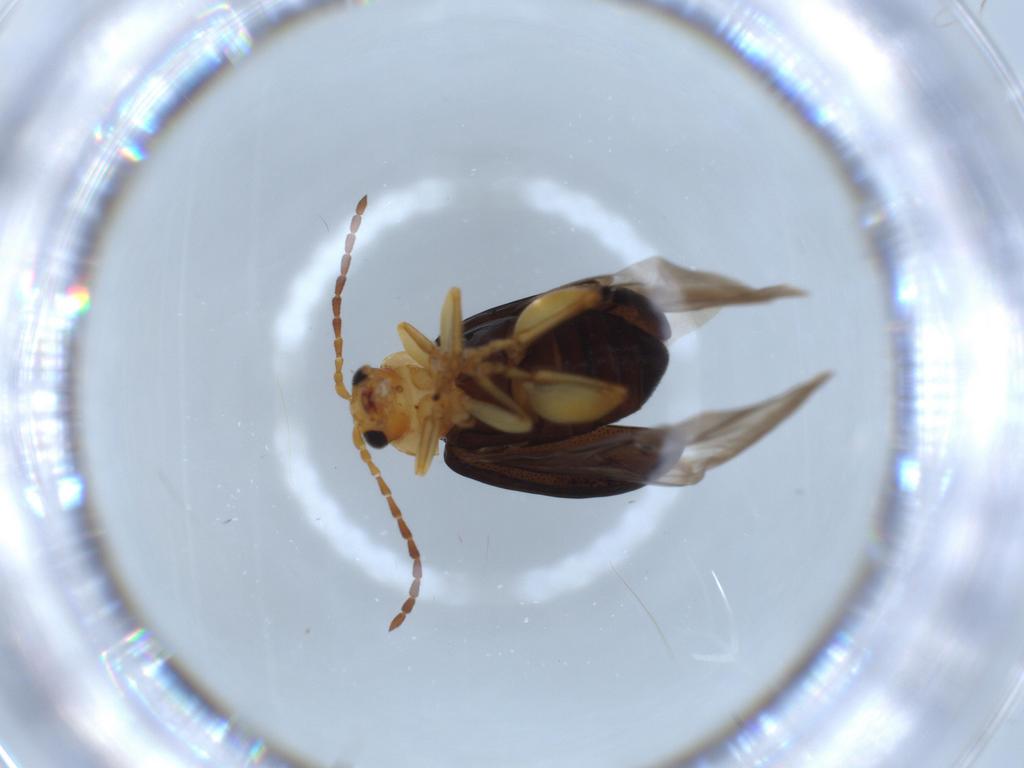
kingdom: Animalia
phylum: Arthropoda
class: Insecta
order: Coleoptera
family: Chrysomelidae
